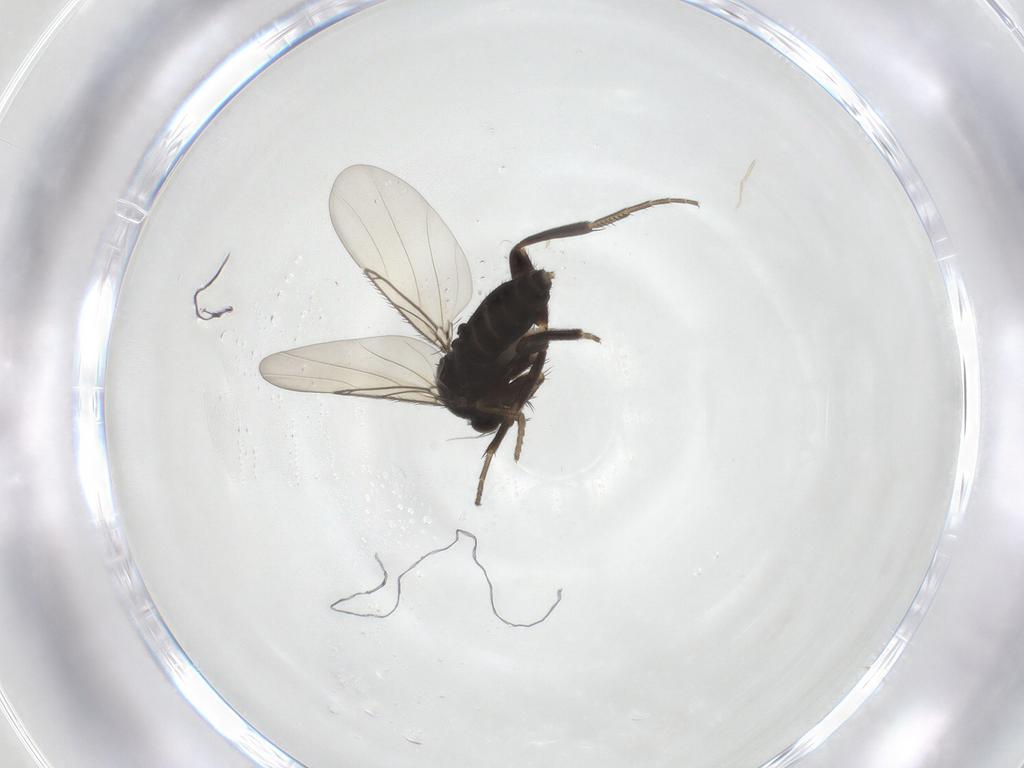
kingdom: Animalia
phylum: Arthropoda
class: Insecta
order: Diptera
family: Phoridae
